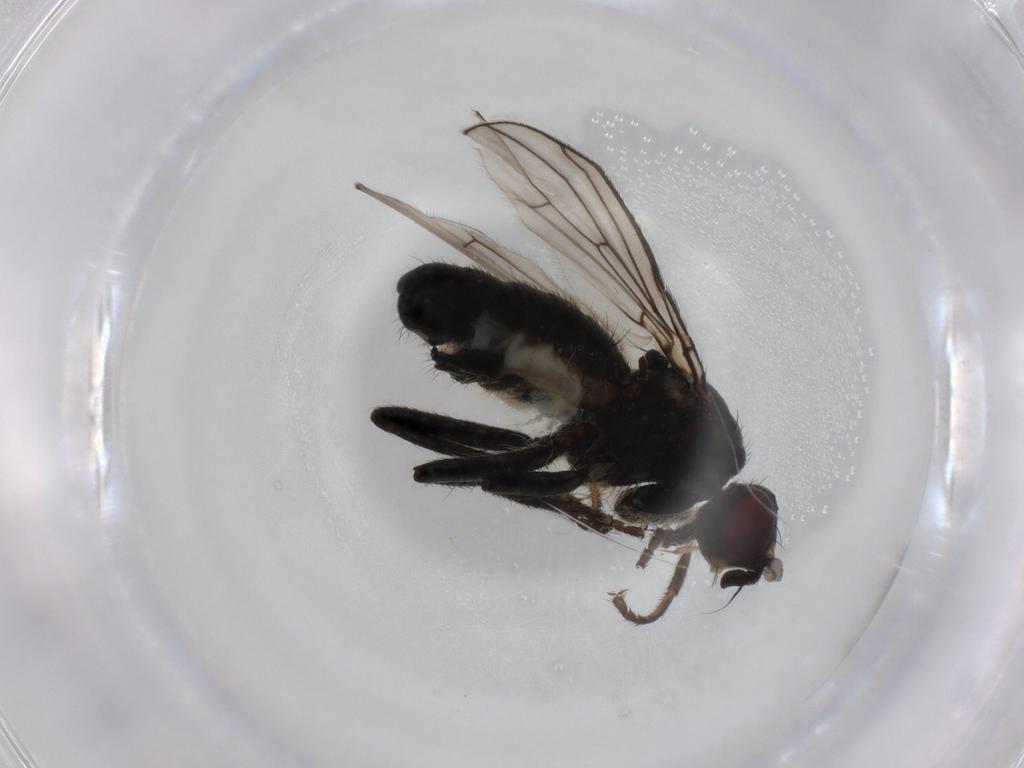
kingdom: Animalia
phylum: Arthropoda
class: Insecta
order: Diptera
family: Scathophagidae
